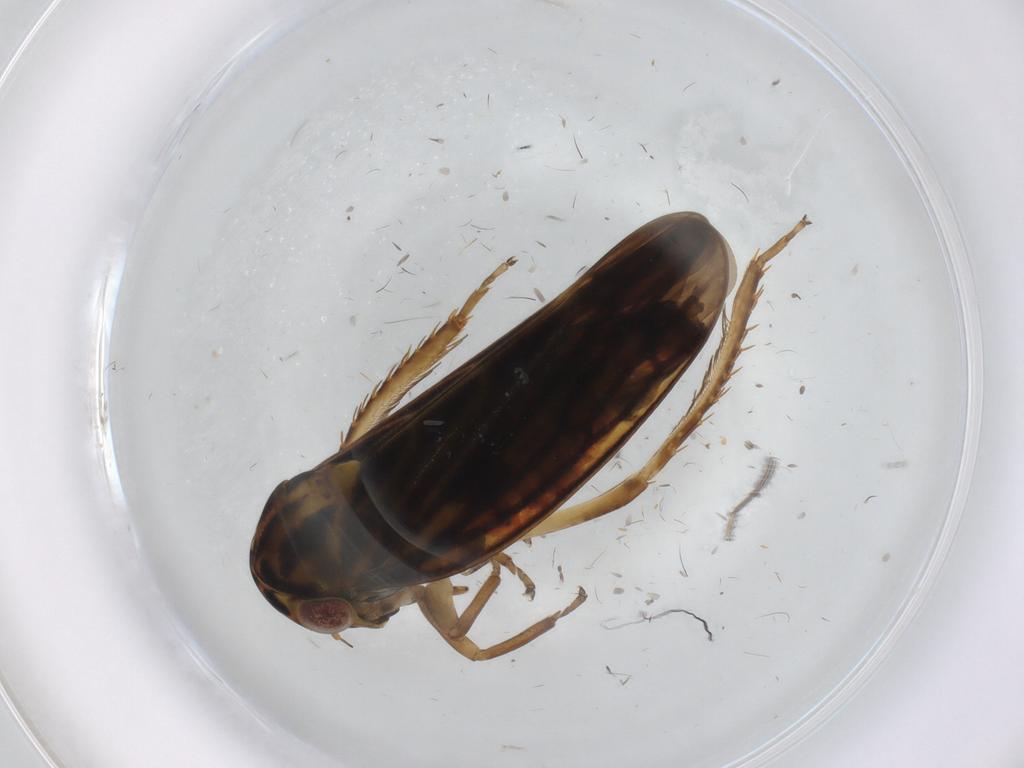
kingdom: Animalia
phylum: Arthropoda
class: Insecta
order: Hemiptera
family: Cicadellidae
